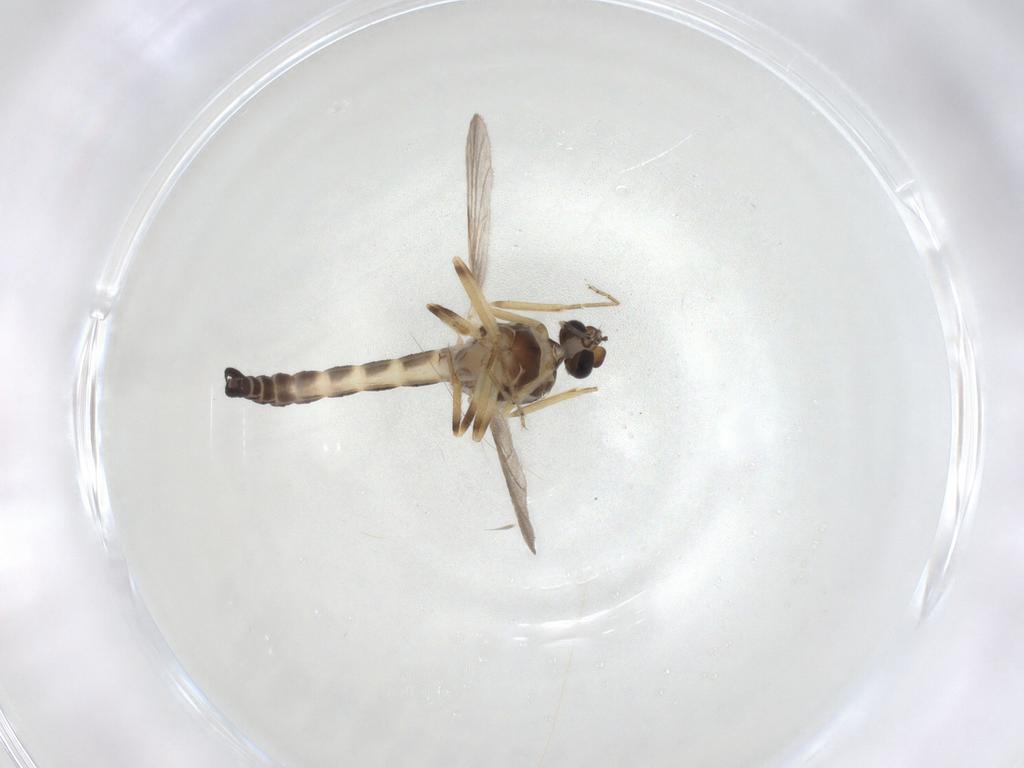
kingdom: Animalia
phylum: Arthropoda
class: Insecta
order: Diptera
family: Ceratopogonidae
